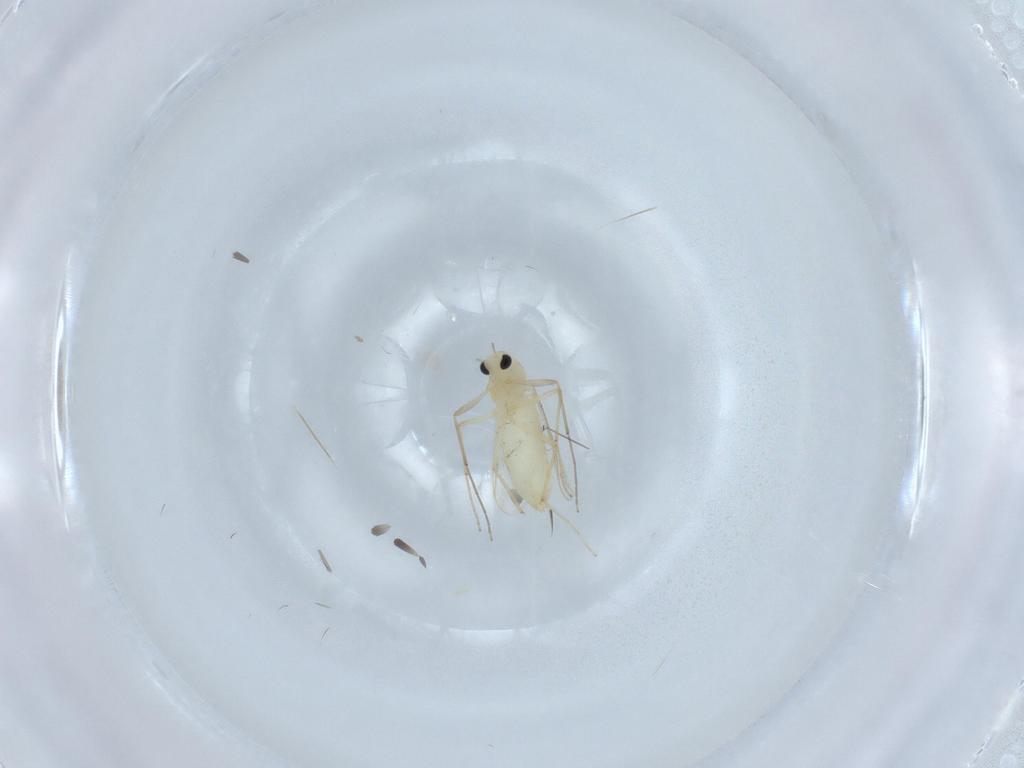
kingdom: Animalia
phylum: Arthropoda
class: Insecta
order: Diptera
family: Chironomidae
